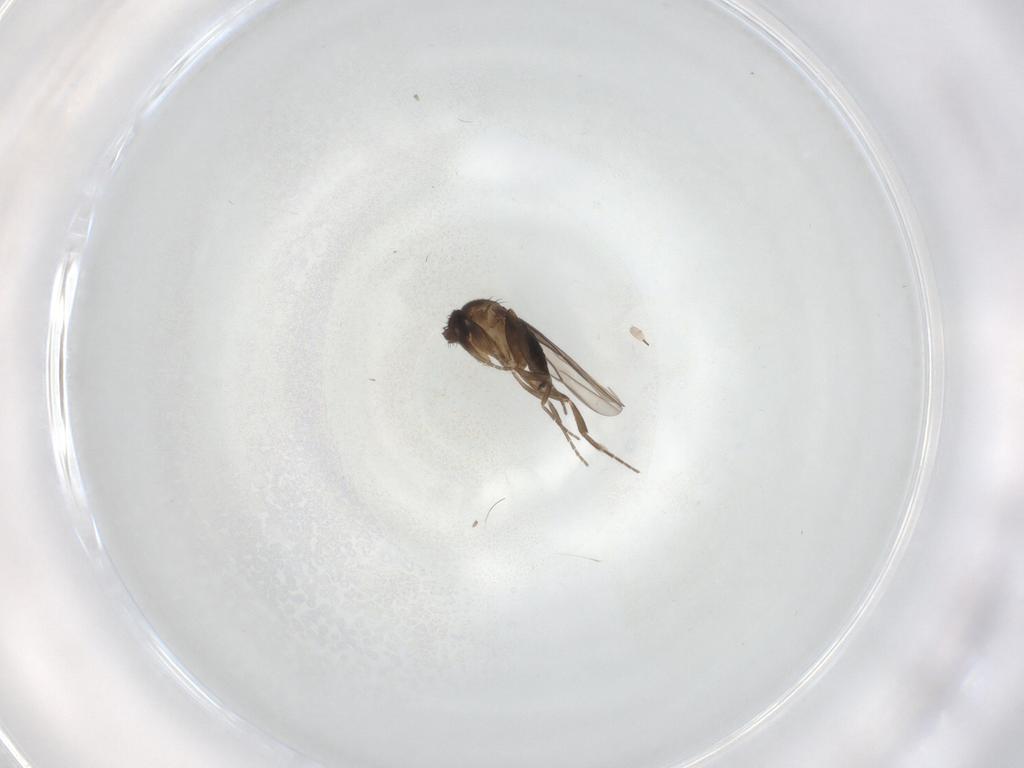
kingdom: Animalia
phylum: Arthropoda
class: Insecta
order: Diptera
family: Phoridae
